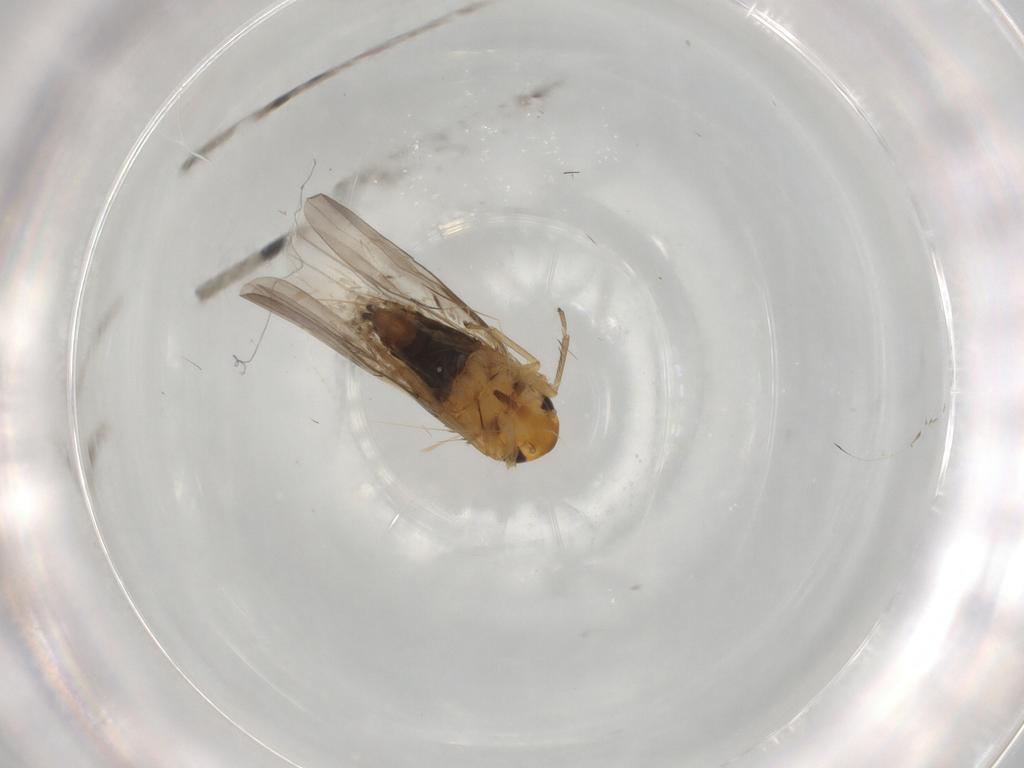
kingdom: Animalia
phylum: Arthropoda
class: Insecta
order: Hemiptera
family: Cicadellidae
